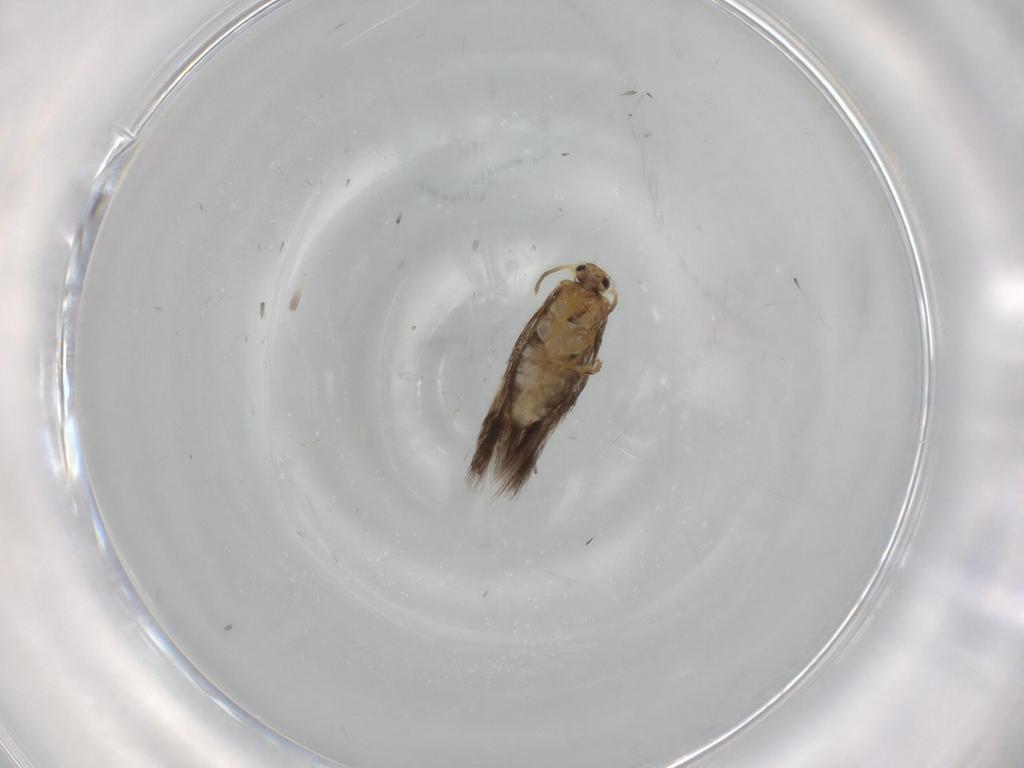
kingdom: Animalia
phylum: Arthropoda
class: Insecta
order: Lepidoptera
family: Nepticulidae
